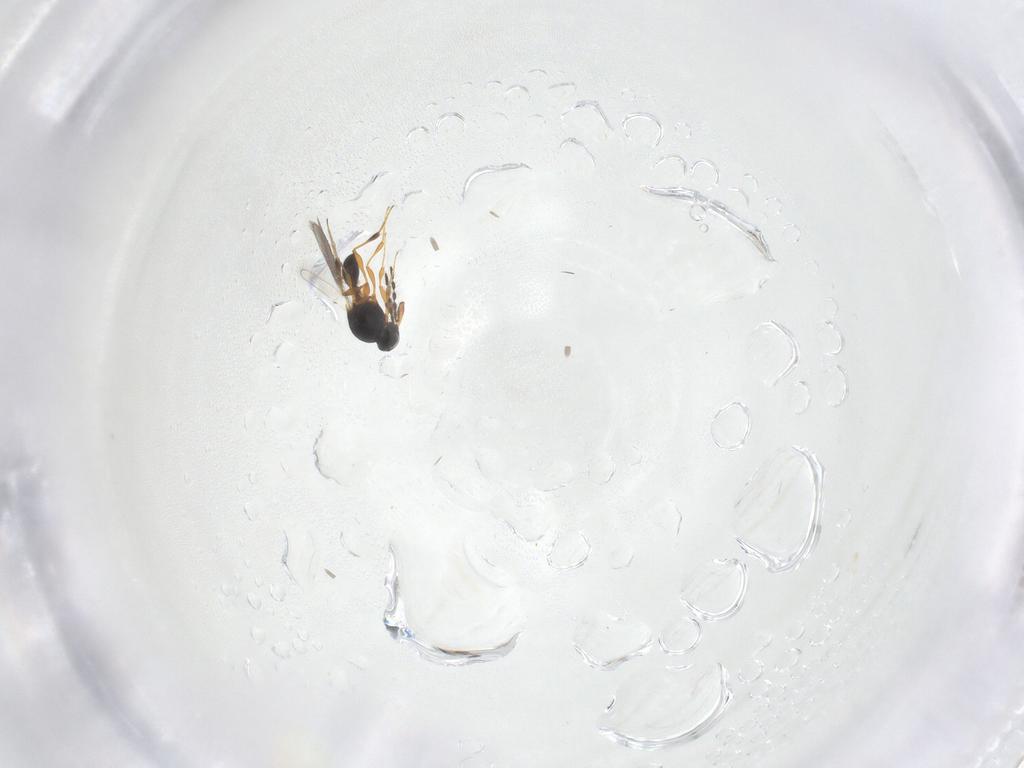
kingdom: Animalia
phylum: Arthropoda
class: Insecta
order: Hymenoptera
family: Platygastridae
